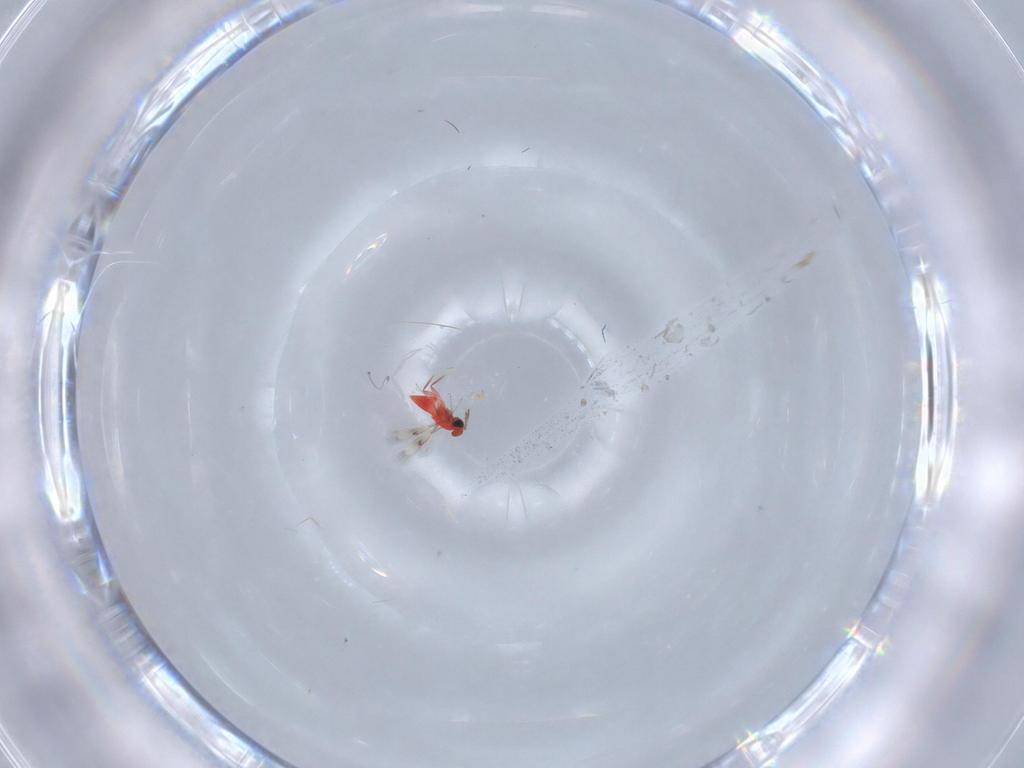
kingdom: Animalia
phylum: Arthropoda
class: Insecta
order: Hymenoptera
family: Trichogrammatidae
